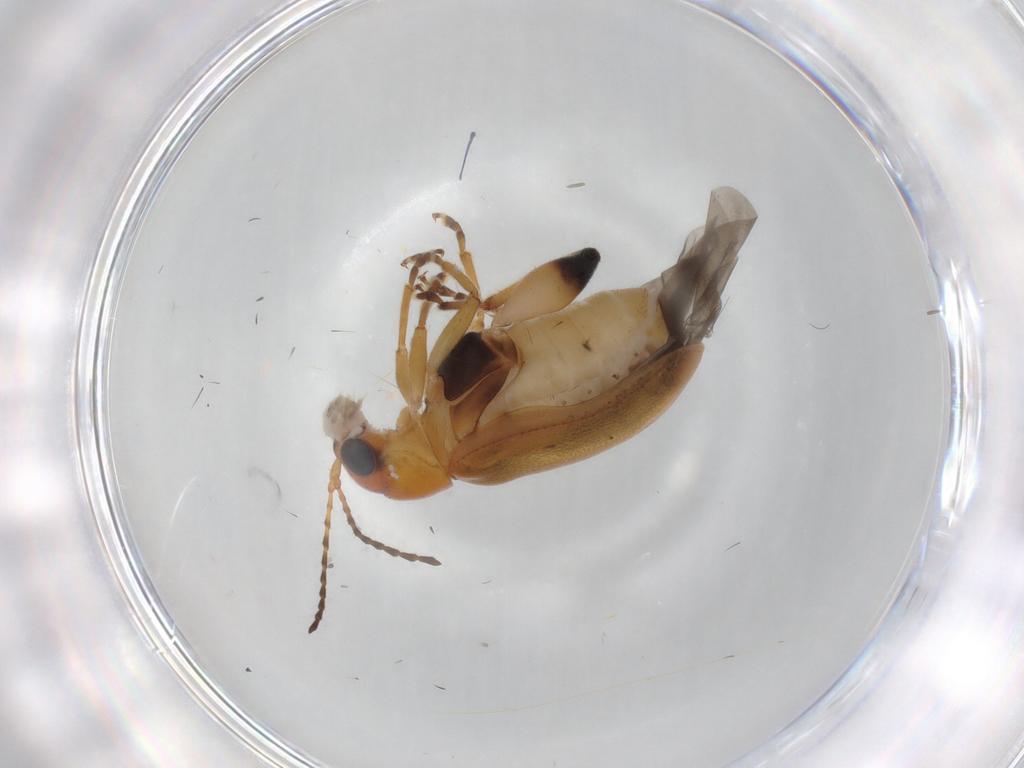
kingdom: Animalia
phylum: Arthropoda
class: Insecta
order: Coleoptera
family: Chrysomelidae
